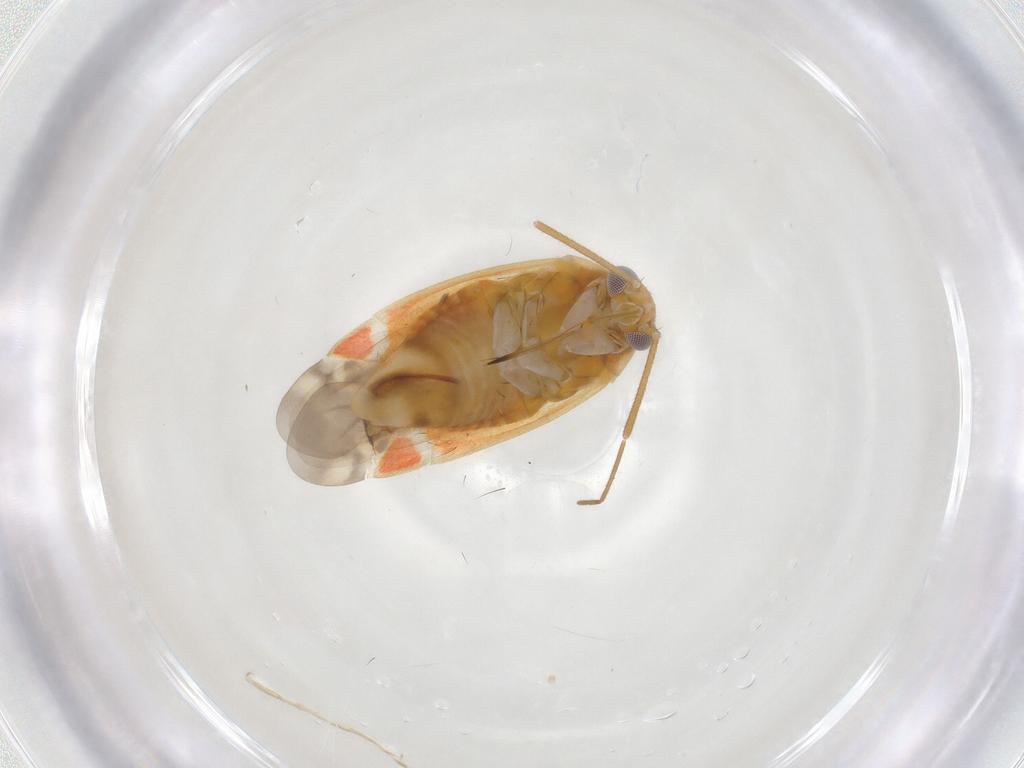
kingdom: Animalia
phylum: Arthropoda
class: Insecta
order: Hemiptera
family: Miridae
